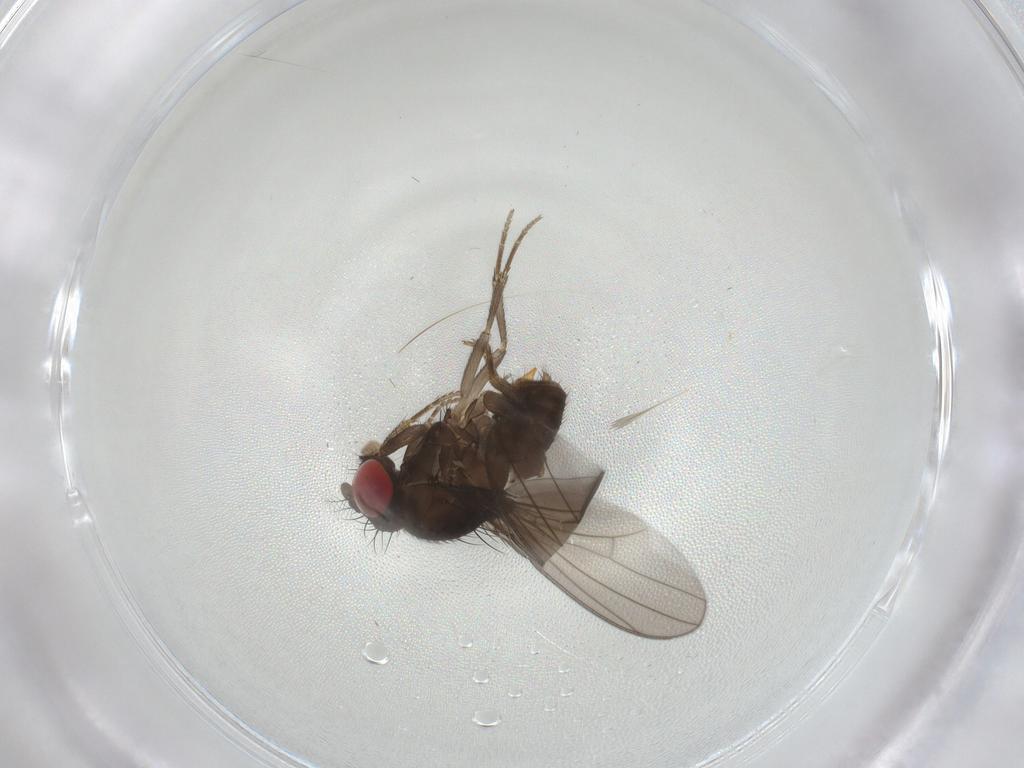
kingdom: Animalia
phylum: Arthropoda
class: Insecta
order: Diptera
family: Drosophilidae
